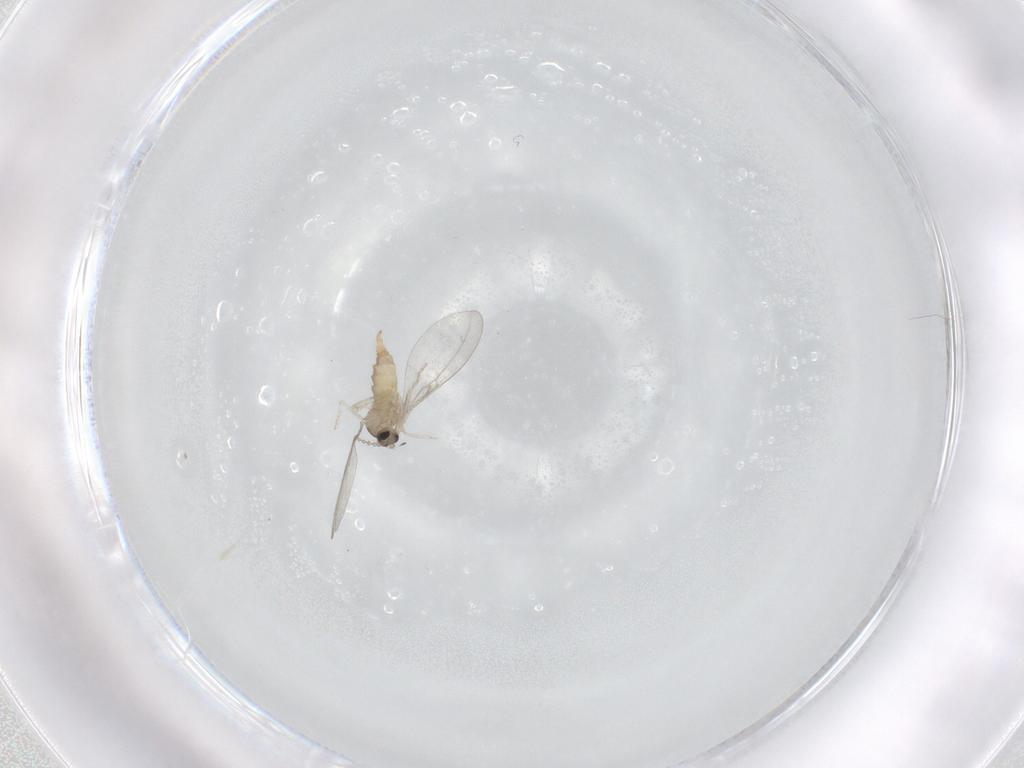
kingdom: Animalia
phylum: Arthropoda
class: Insecta
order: Diptera
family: Cecidomyiidae
